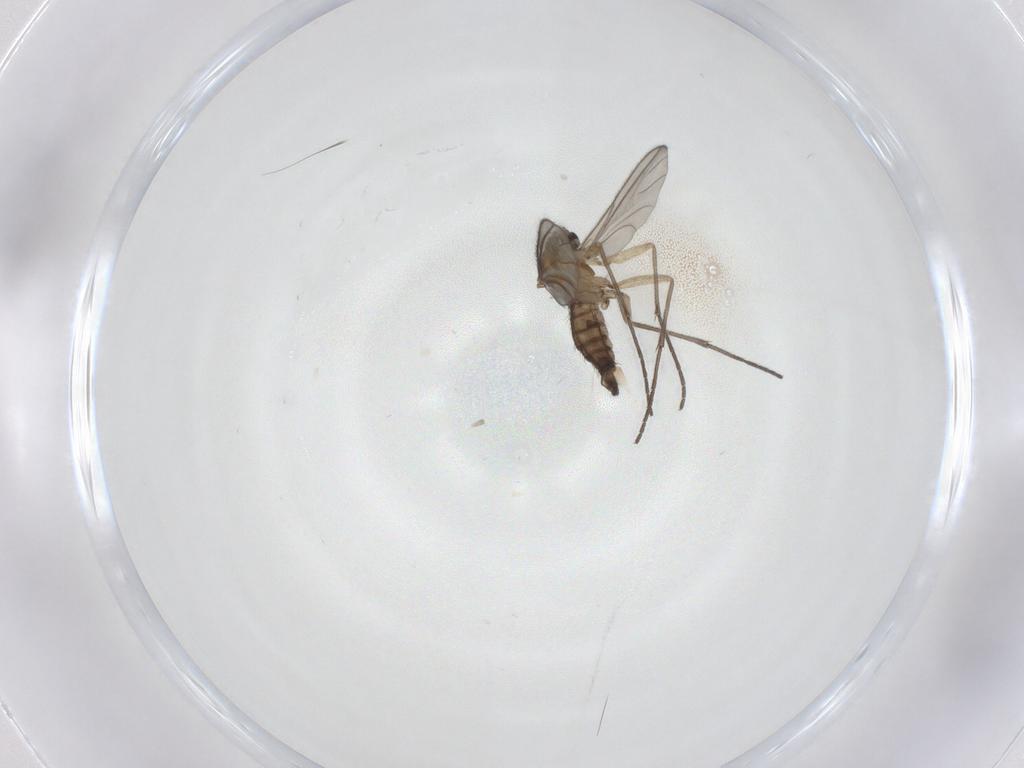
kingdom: Animalia
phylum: Arthropoda
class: Insecta
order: Diptera
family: Sciaridae
